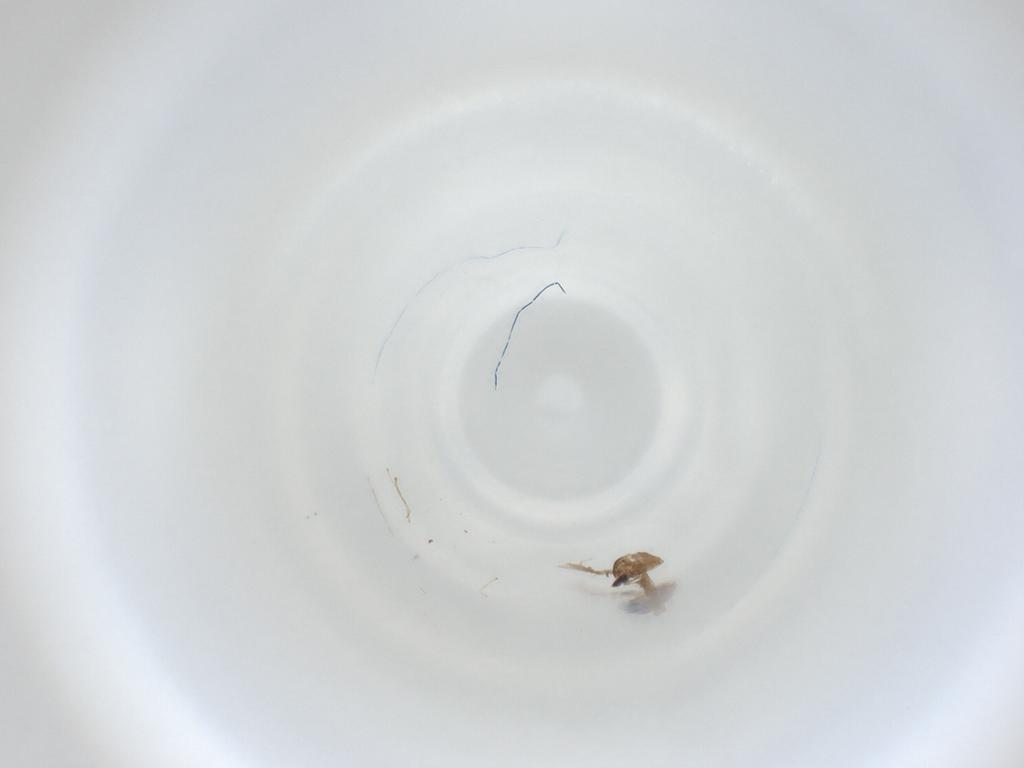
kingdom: Animalia
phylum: Arthropoda
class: Insecta
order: Diptera
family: Cecidomyiidae
